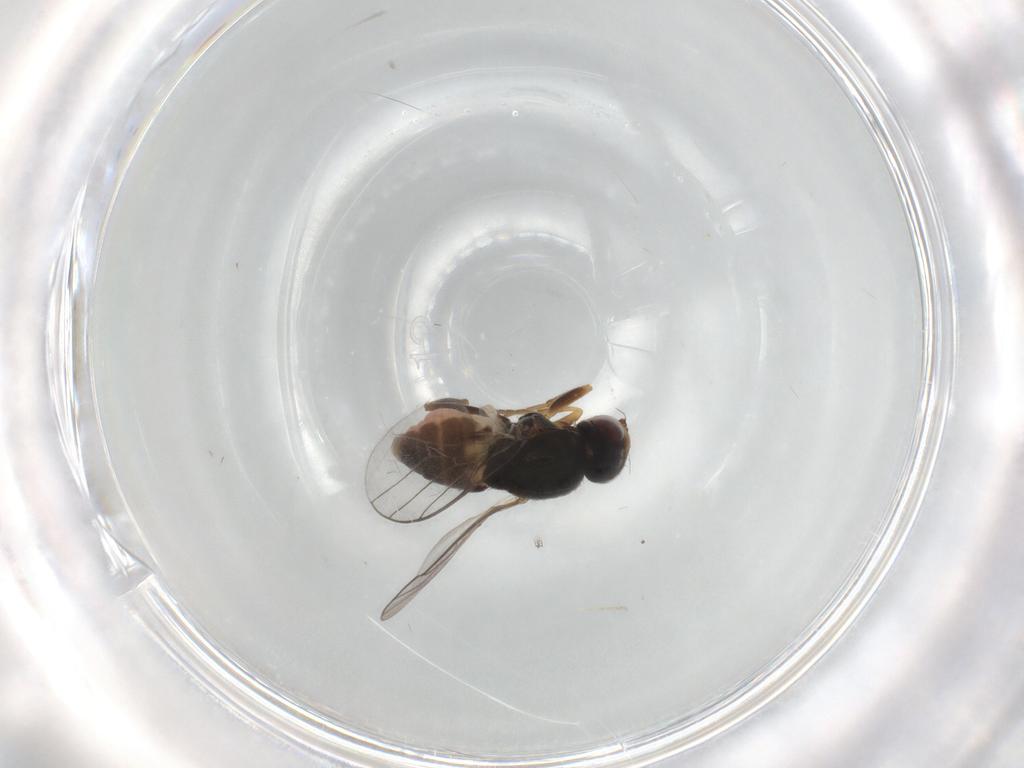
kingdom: Animalia
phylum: Arthropoda
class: Insecta
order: Diptera
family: Chloropidae
